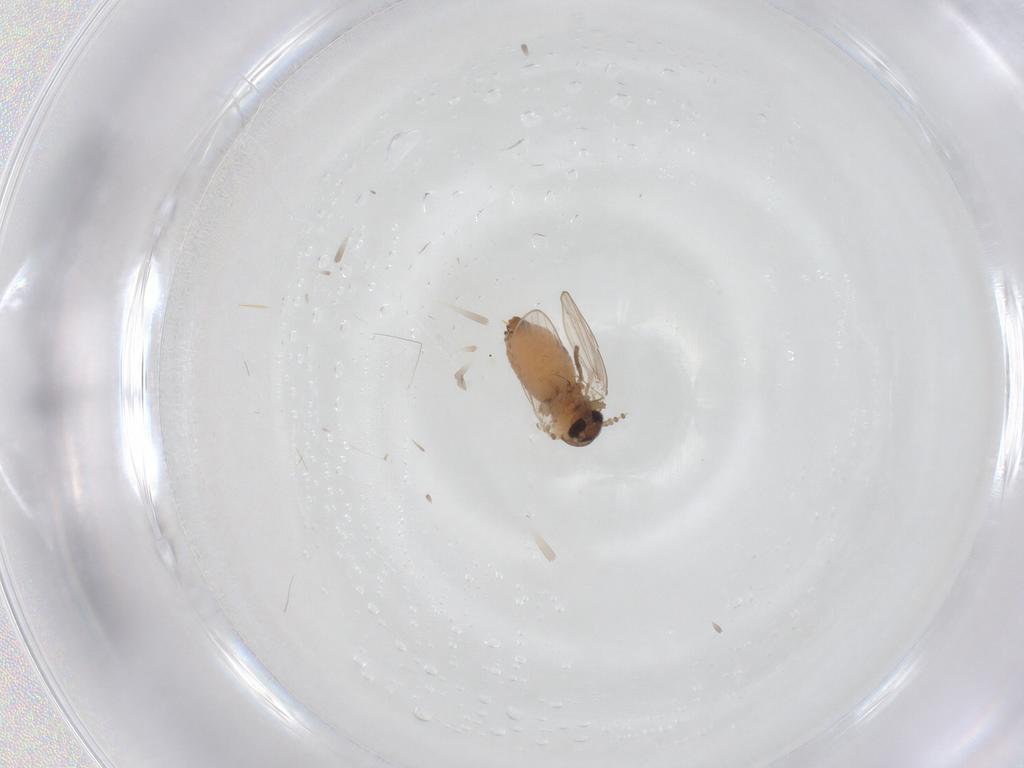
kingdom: Animalia
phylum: Arthropoda
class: Insecta
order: Diptera
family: Psychodidae
